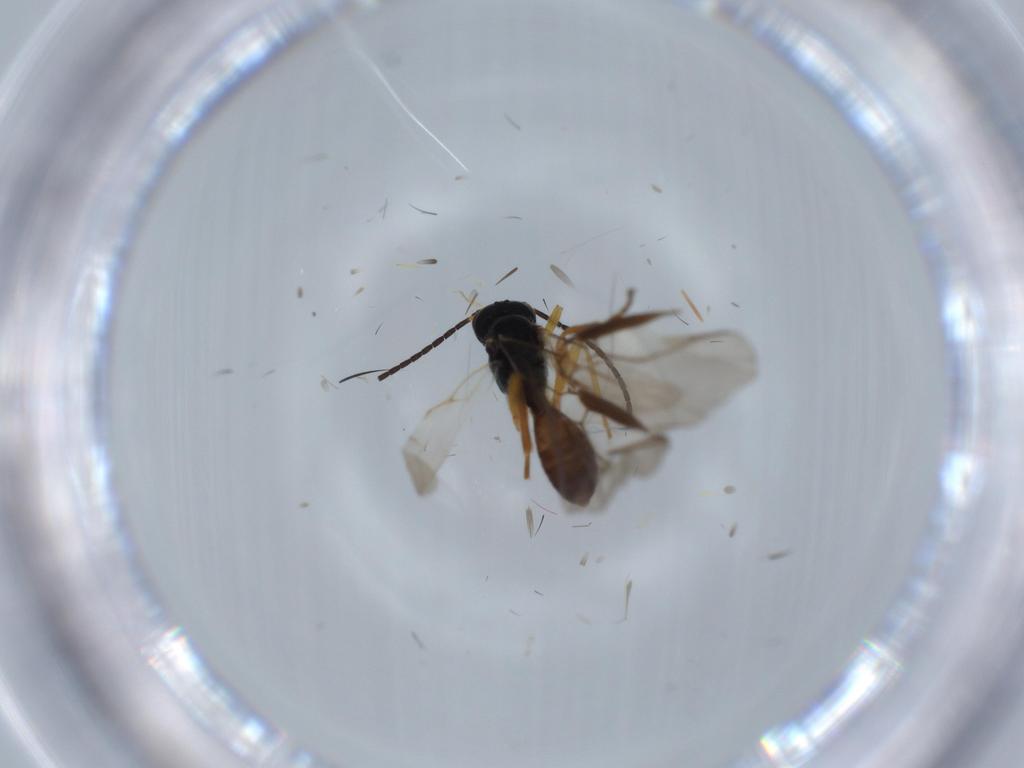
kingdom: Animalia
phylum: Arthropoda
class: Insecta
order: Hymenoptera
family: Braconidae
